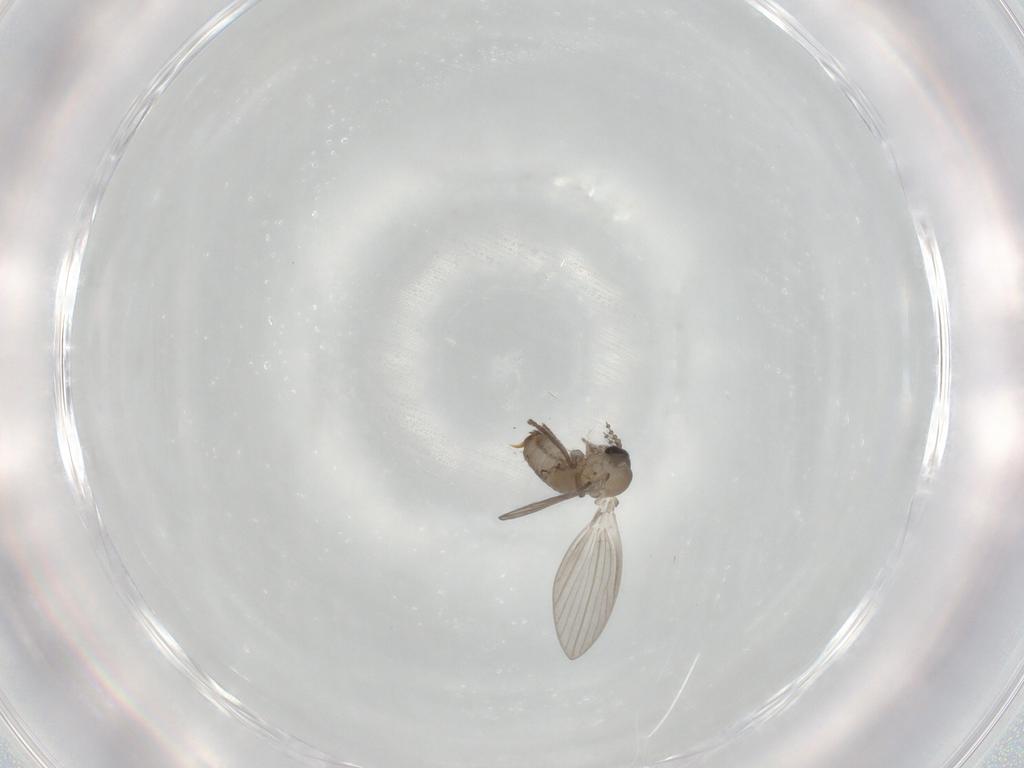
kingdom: Animalia
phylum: Arthropoda
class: Insecta
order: Diptera
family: Psychodidae
